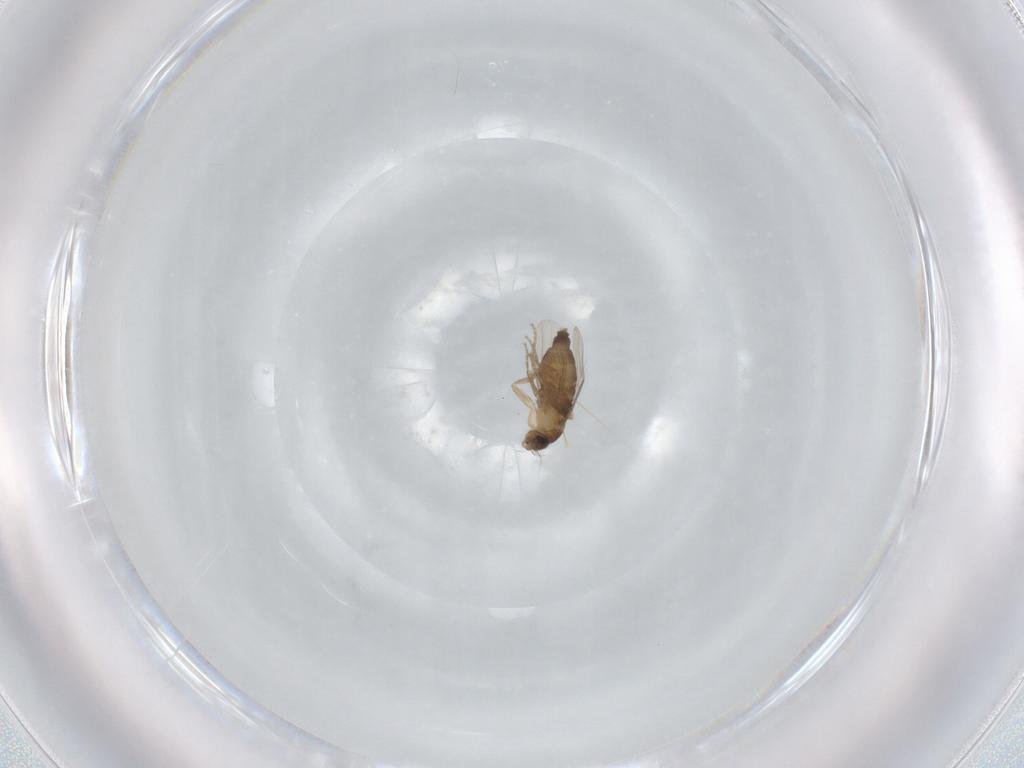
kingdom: Animalia
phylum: Arthropoda
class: Insecta
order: Diptera
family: Phoridae
